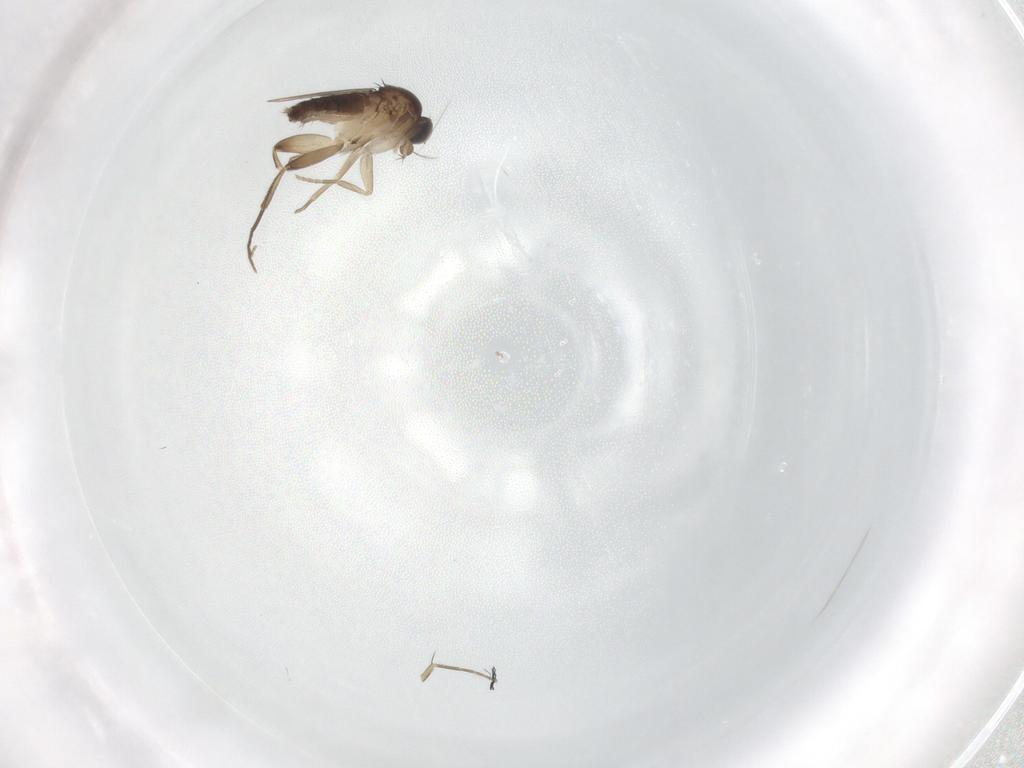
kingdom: Animalia
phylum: Arthropoda
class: Insecta
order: Diptera
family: Phoridae
